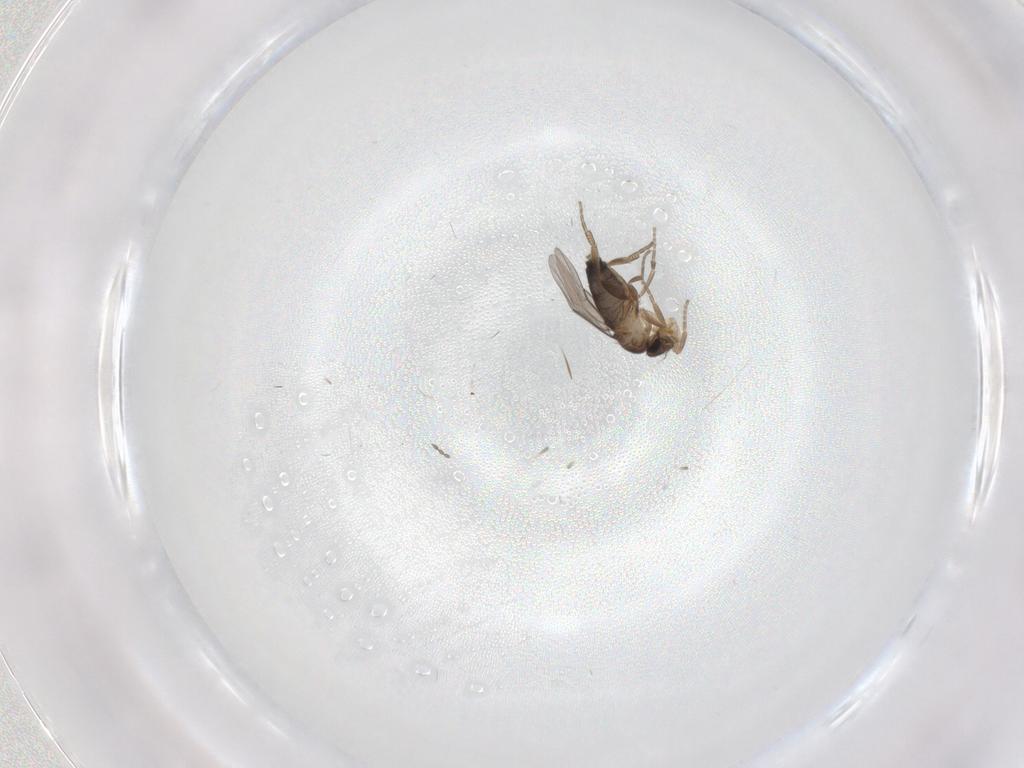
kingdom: Animalia
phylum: Arthropoda
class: Insecta
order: Diptera
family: Phoridae
